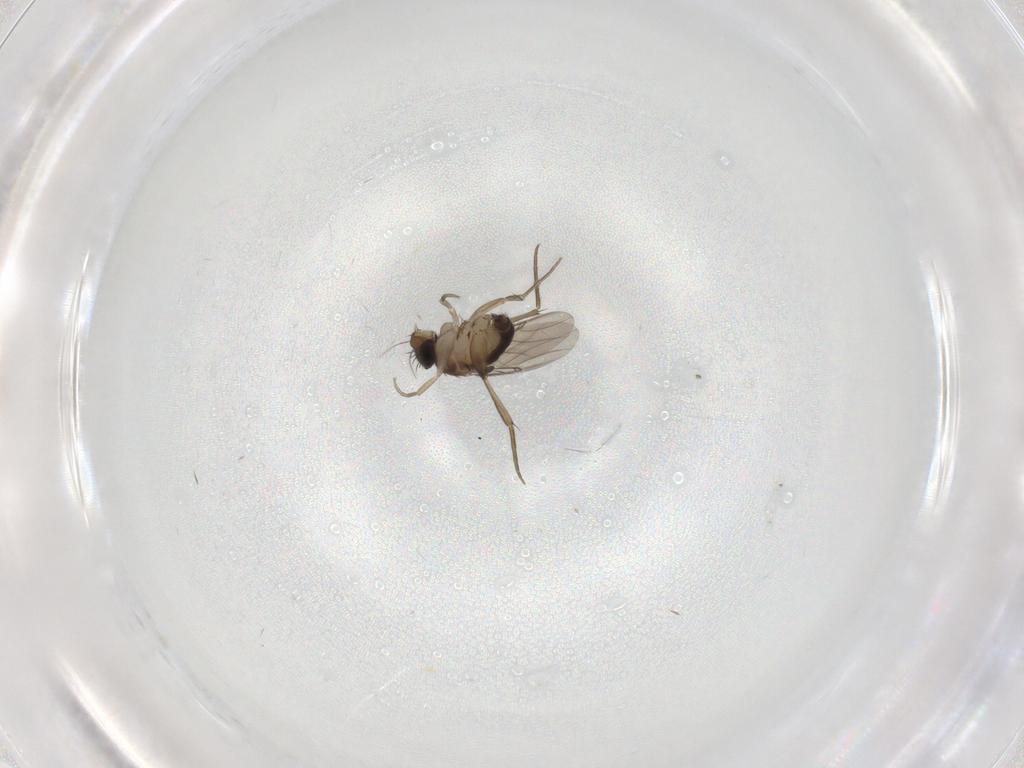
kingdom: Animalia
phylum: Arthropoda
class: Insecta
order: Diptera
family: Phoridae
